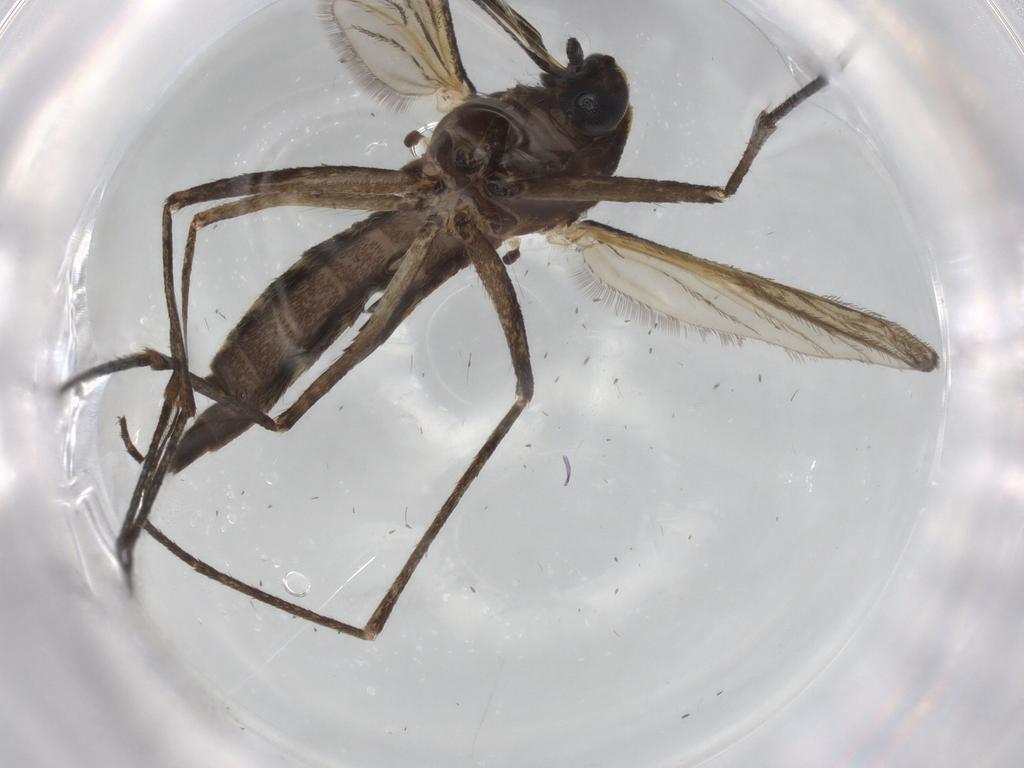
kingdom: Animalia
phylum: Arthropoda
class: Insecta
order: Diptera
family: Culicidae
